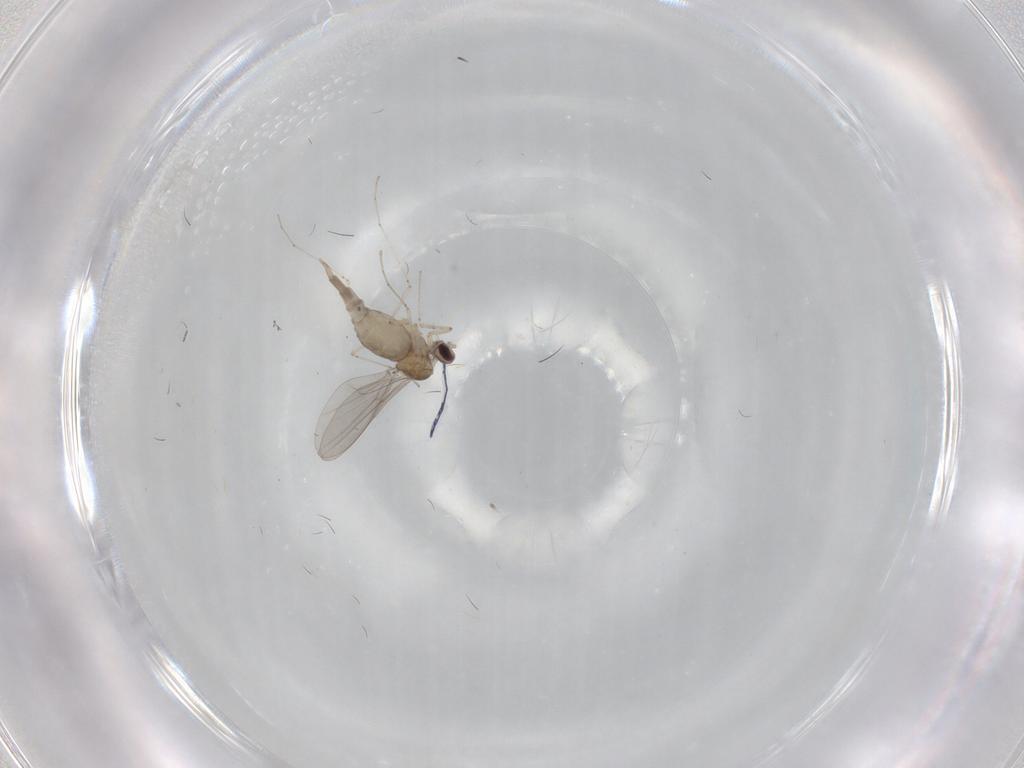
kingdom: Animalia
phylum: Arthropoda
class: Insecta
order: Diptera
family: Cecidomyiidae
